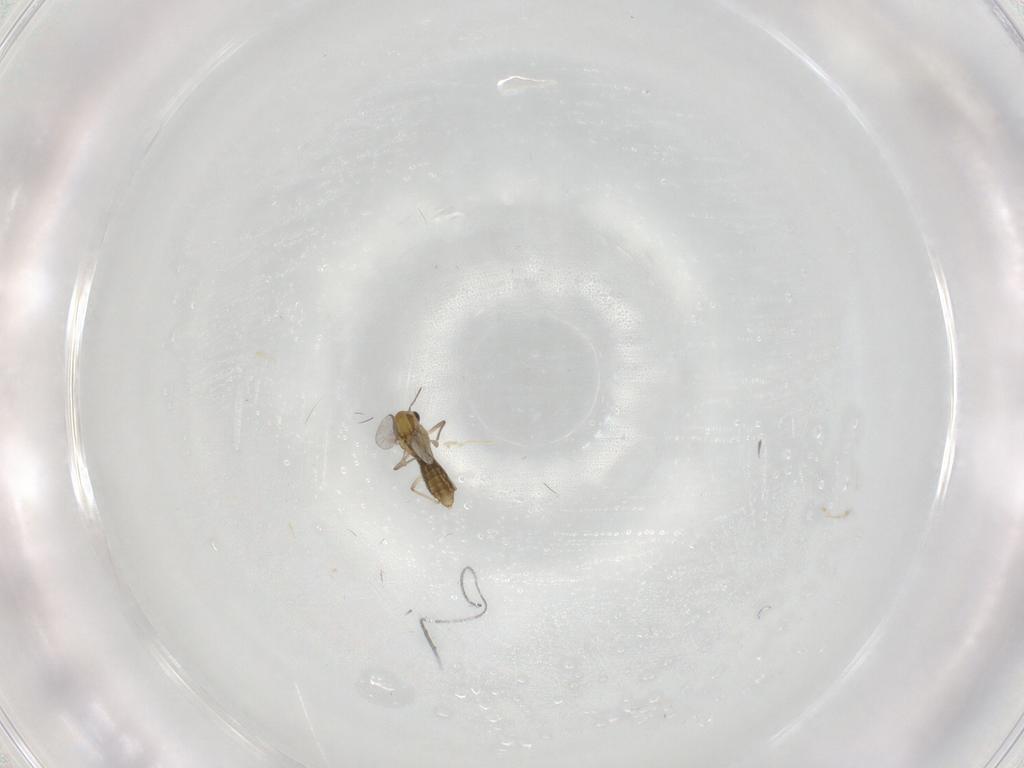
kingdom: Animalia
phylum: Arthropoda
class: Insecta
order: Diptera
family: Chironomidae
